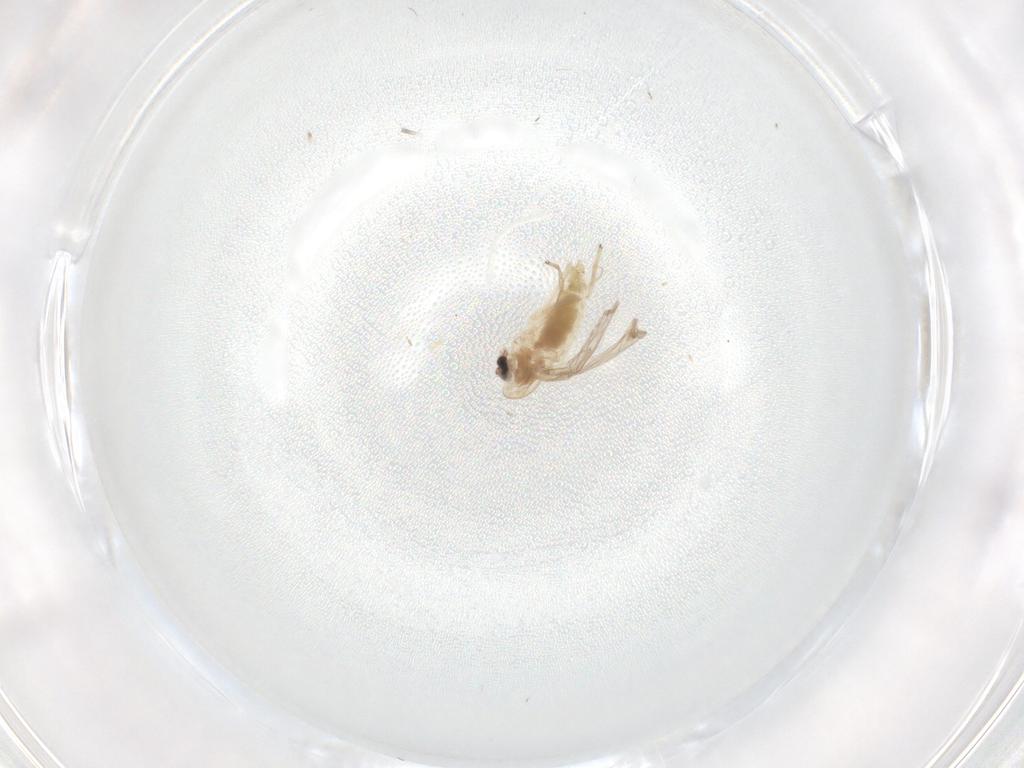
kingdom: Animalia
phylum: Arthropoda
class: Insecta
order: Diptera
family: Chironomidae
